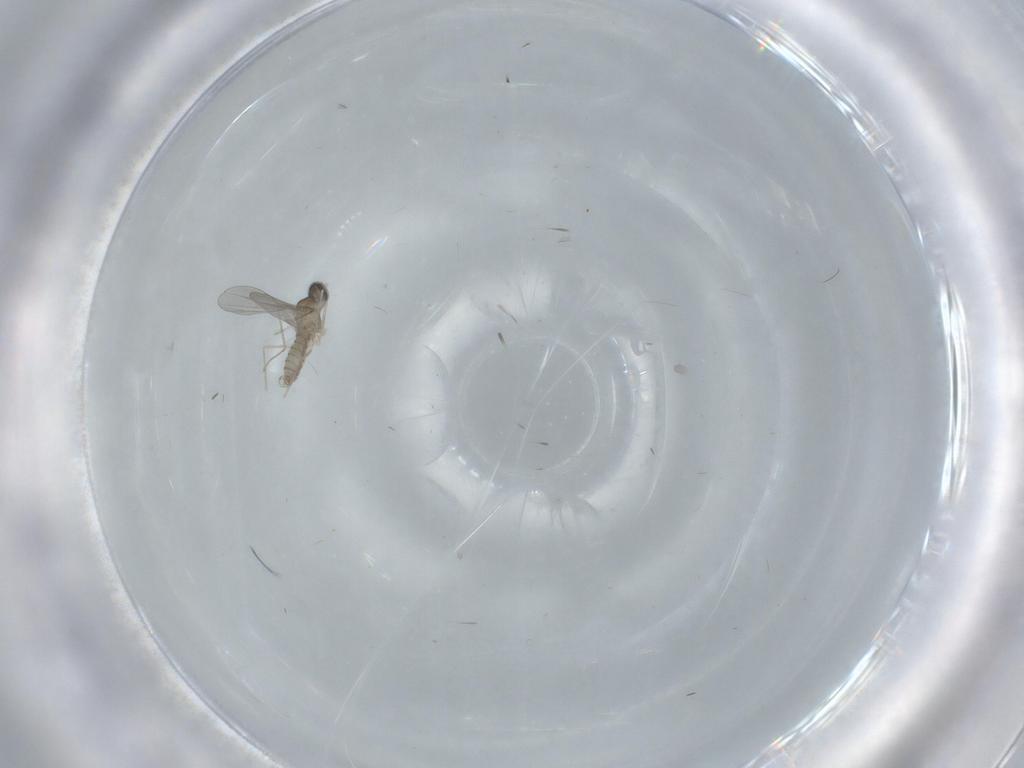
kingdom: Animalia
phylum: Arthropoda
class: Insecta
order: Diptera
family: Cecidomyiidae
